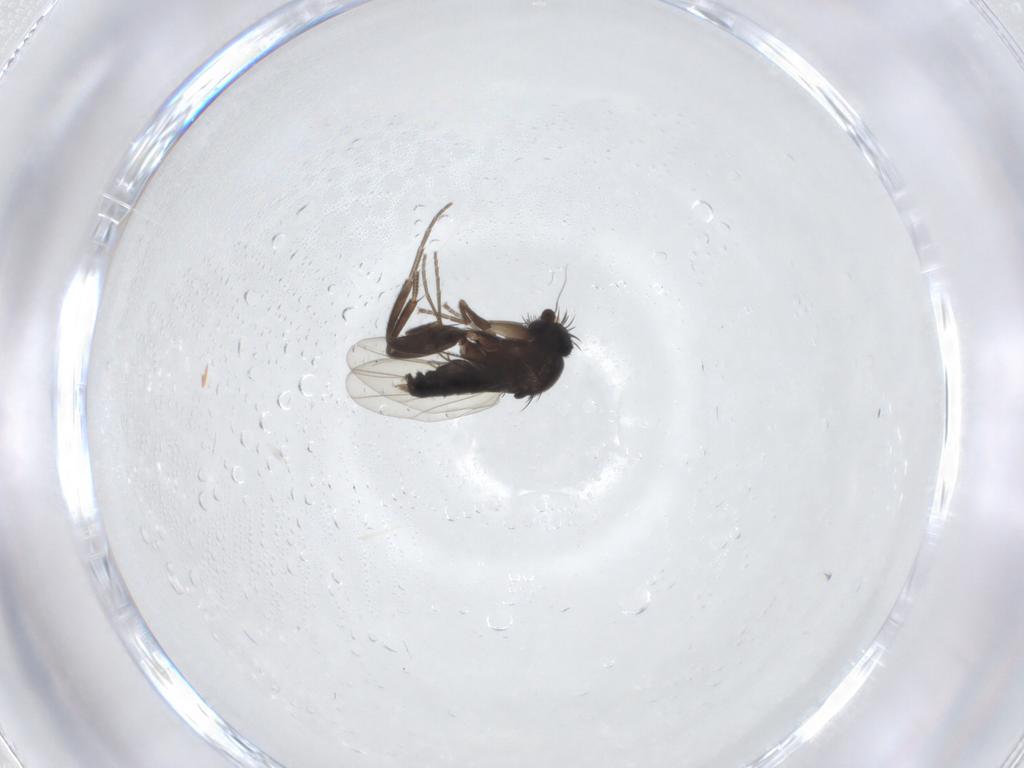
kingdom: Animalia
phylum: Arthropoda
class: Insecta
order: Diptera
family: Phoridae
